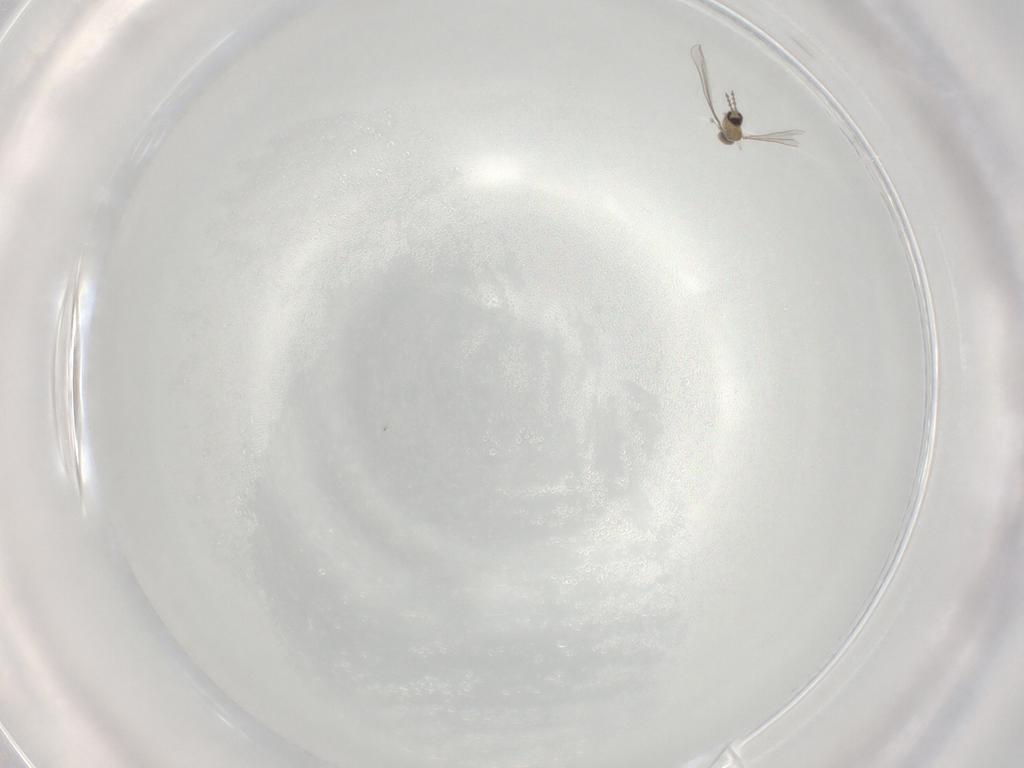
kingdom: Animalia
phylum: Arthropoda
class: Insecta
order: Diptera
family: Cecidomyiidae
